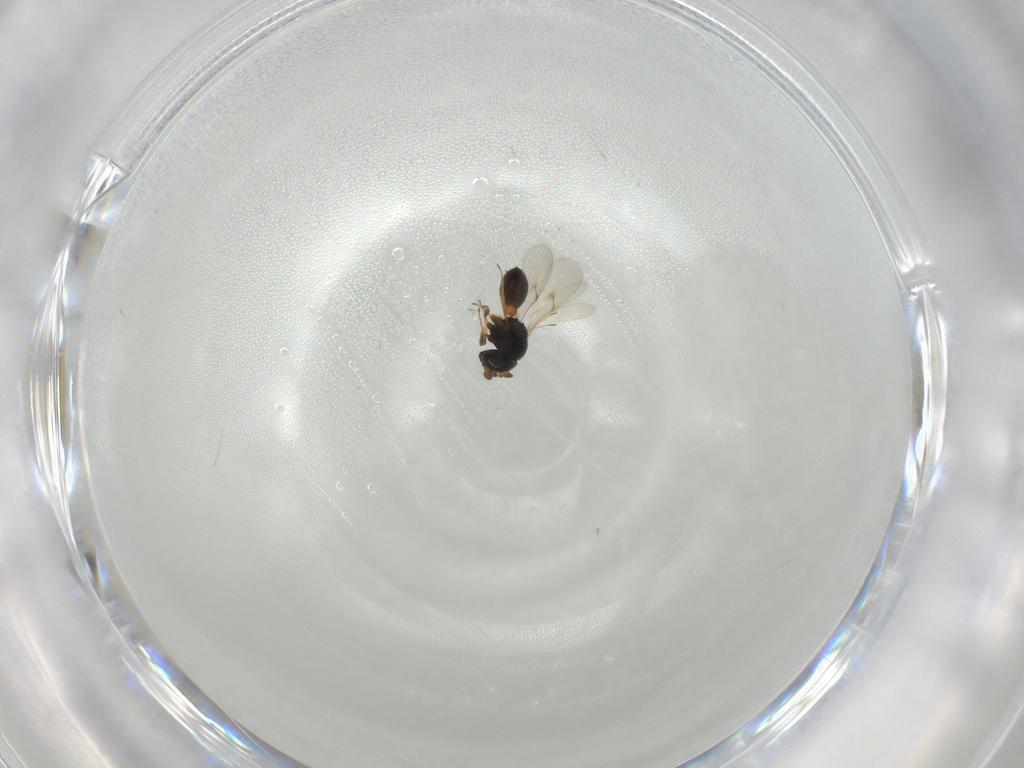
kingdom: Animalia
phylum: Arthropoda
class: Insecta
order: Hymenoptera
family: Scelionidae
